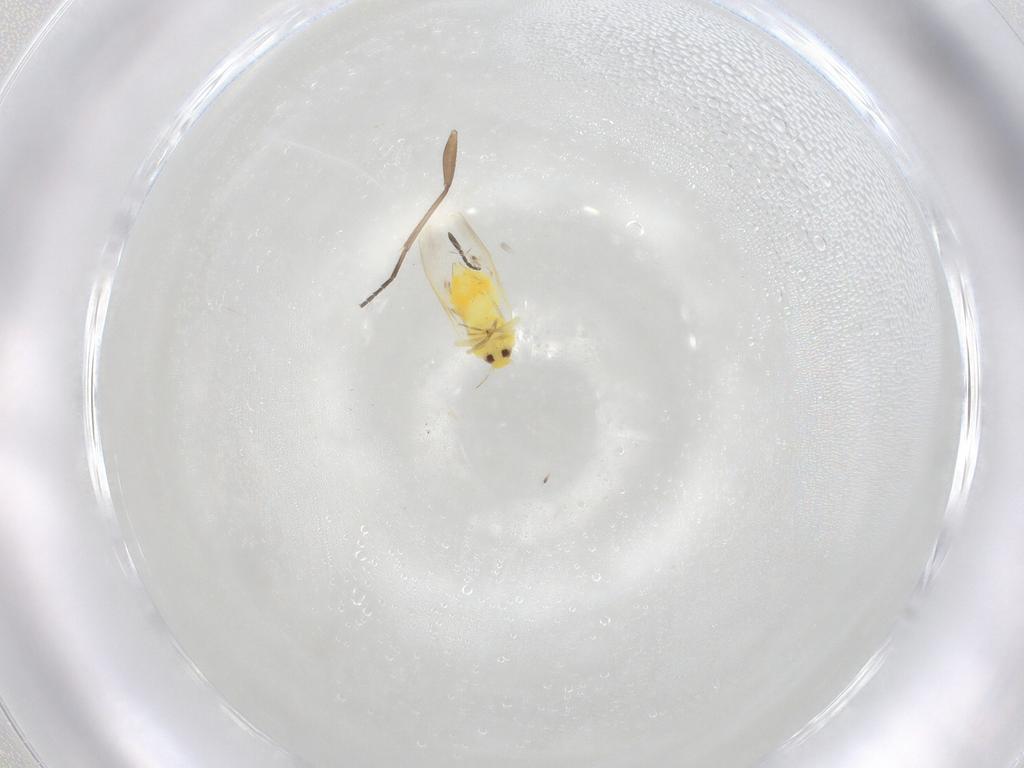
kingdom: Animalia
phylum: Arthropoda
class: Insecta
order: Hemiptera
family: Aleyrodidae
